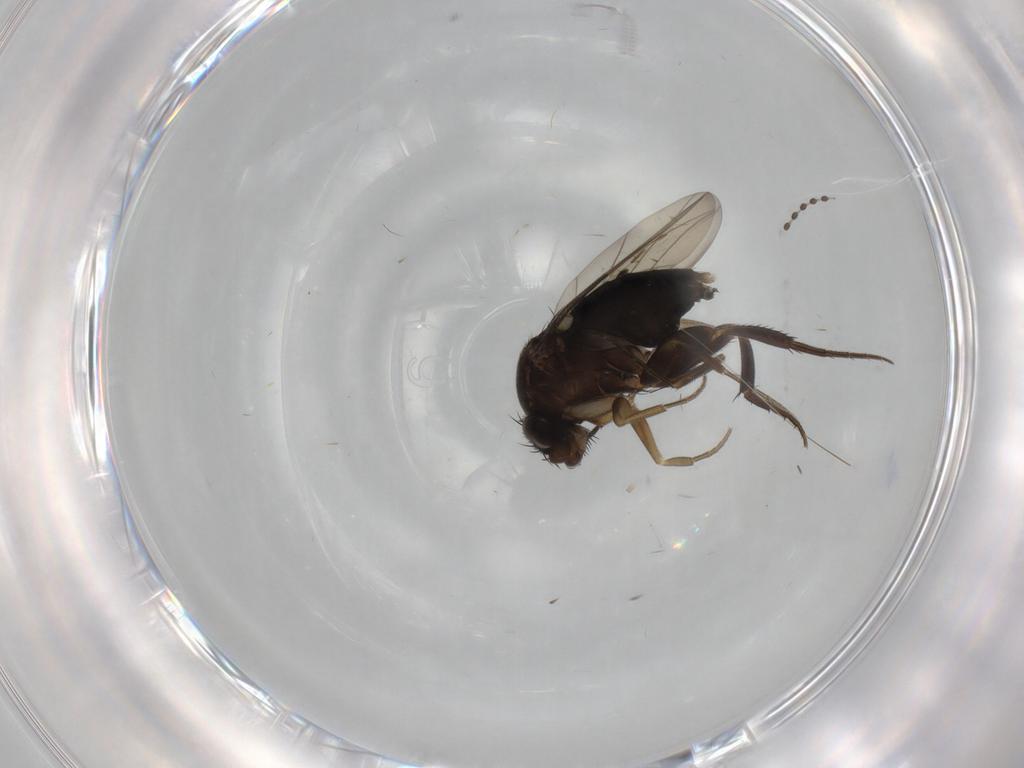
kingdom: Animalia
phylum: Arthropoda
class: Insecta
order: Diptera
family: Phoridae
